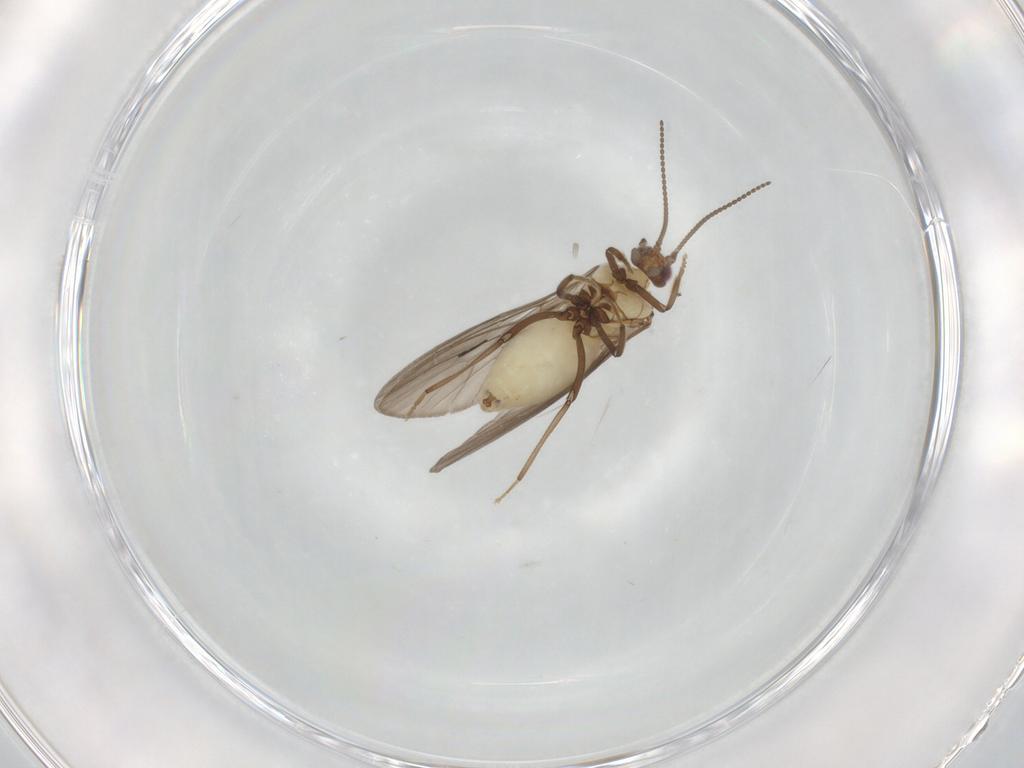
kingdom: Animalia
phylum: Arthropoda
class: Insecta
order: Neuroptera
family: Coniopterygidae
